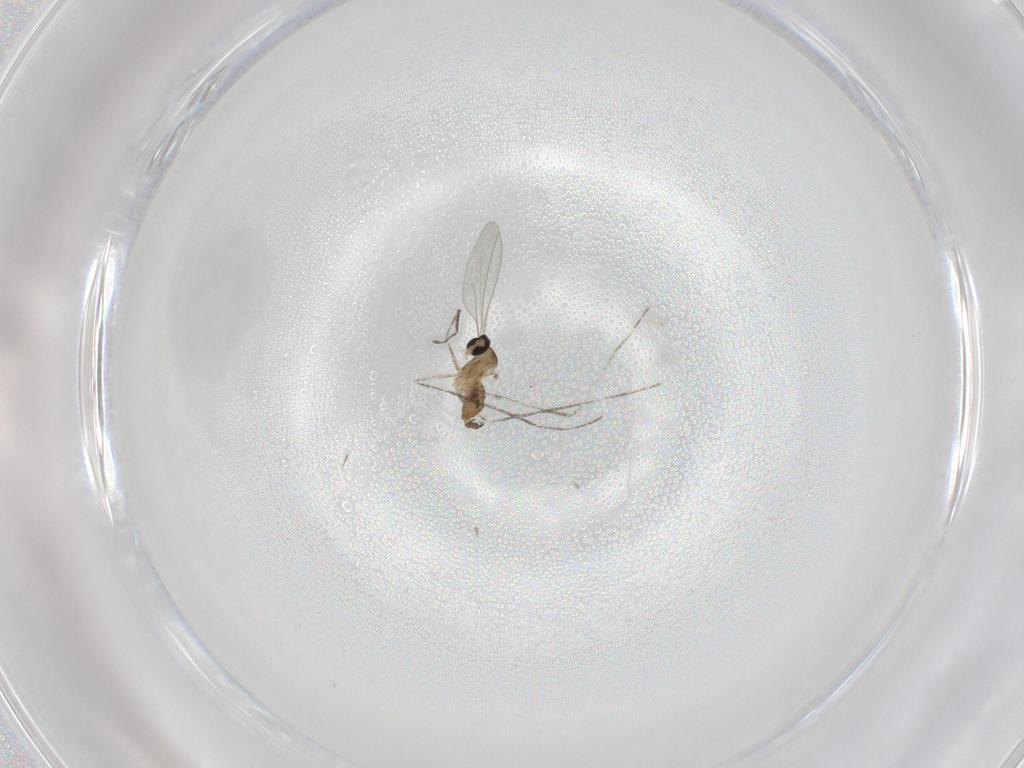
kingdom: Animalia
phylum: Arthropoda
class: Insecta
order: Diptera
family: Cecidomyiidae
